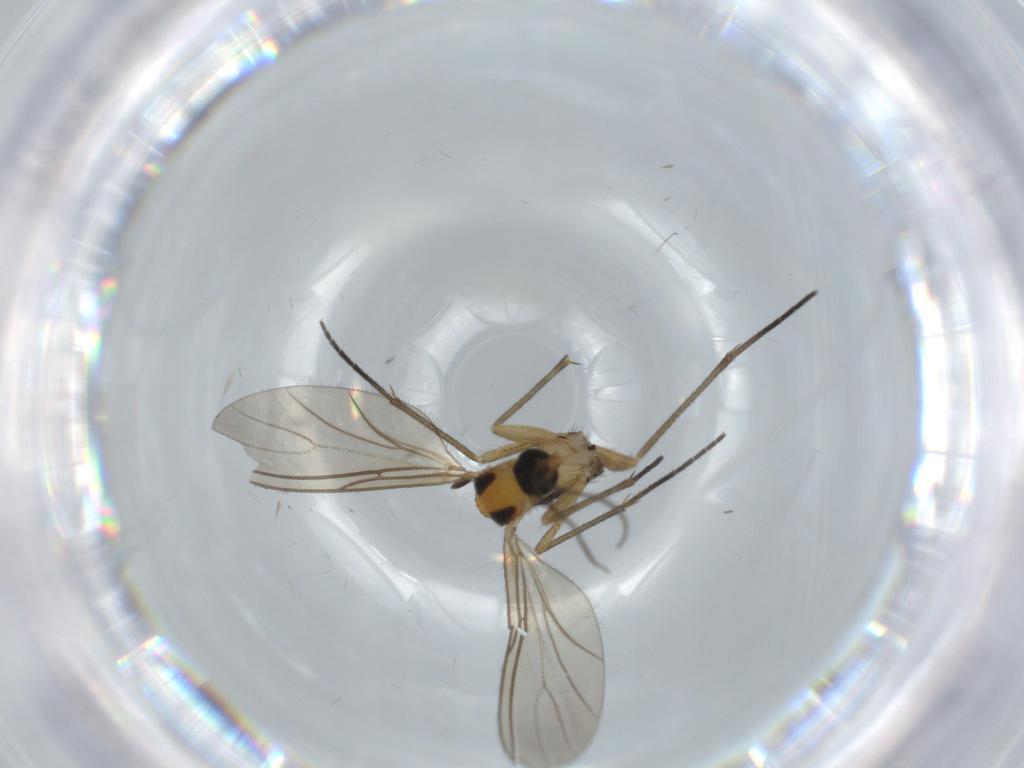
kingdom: Animalia
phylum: Arthropoda
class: Insecta
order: Diptera
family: Sciaridae
